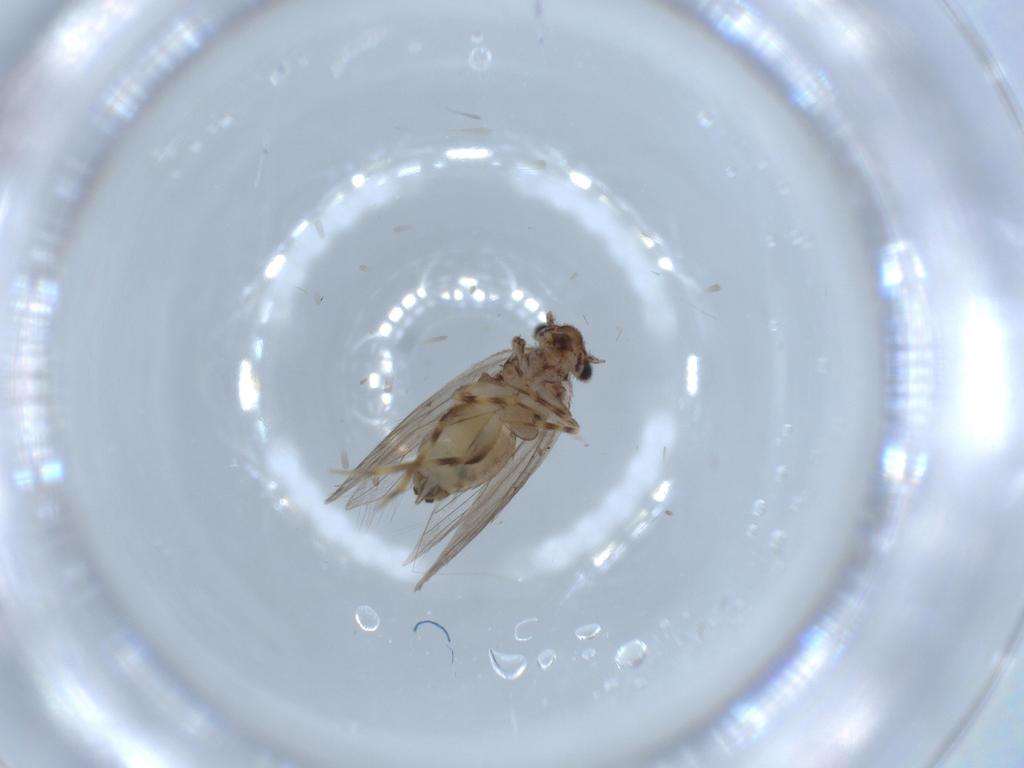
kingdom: Animalia
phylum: Arthropoda
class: Insecta
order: Psocodea
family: Lepidopsocidae
